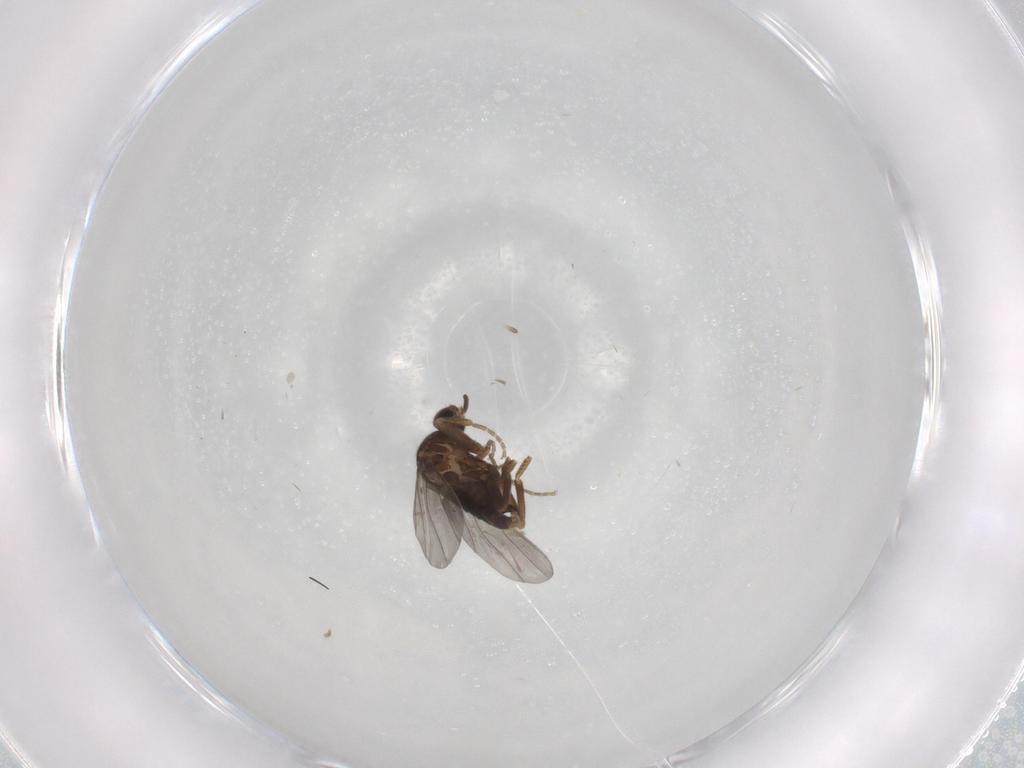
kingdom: Animalia
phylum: Arthropoda
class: Insecta
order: Diptera
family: Phoridae
